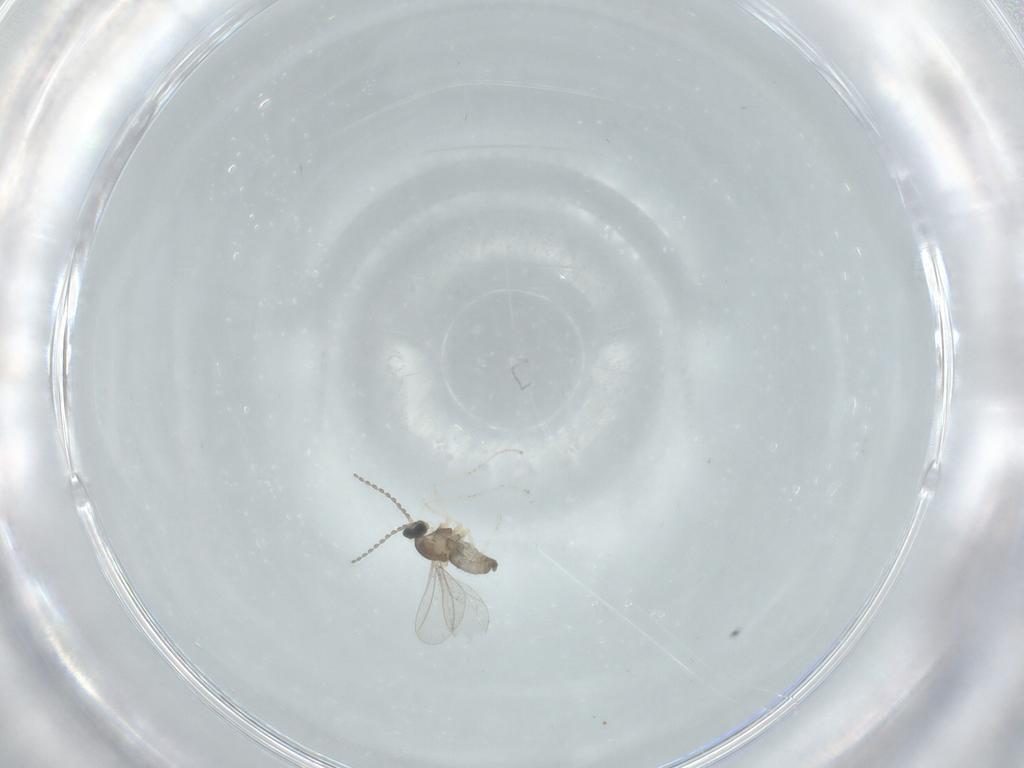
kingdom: Animalia
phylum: Arthropoda
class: Insecta
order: Diptera
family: Cecidomyiidae
